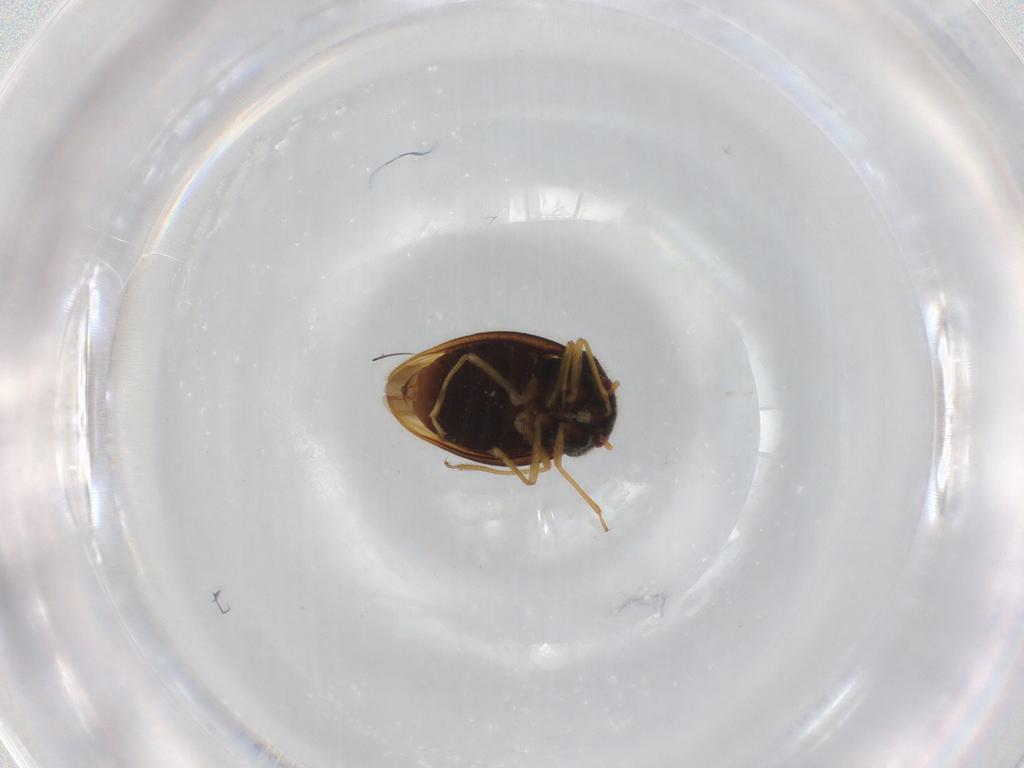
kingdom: Animalia
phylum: Arthropoda
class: Insecta
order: Hemiptera
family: Schizopteridae
